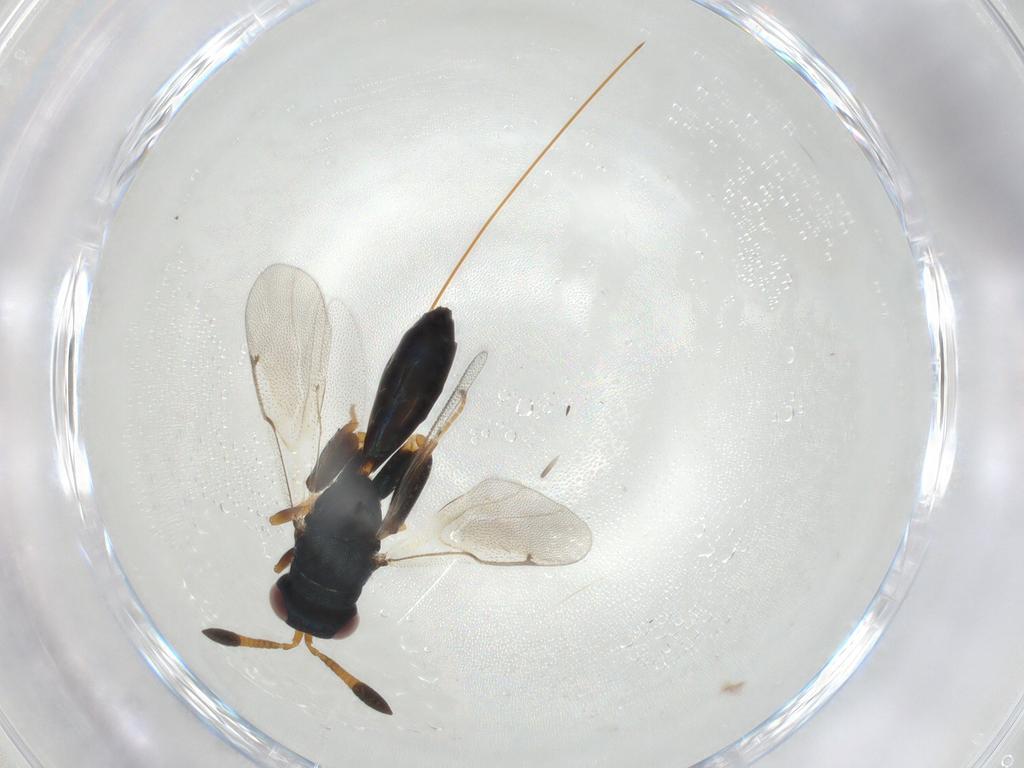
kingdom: Animalia
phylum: Arthropoda
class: Insecta
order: Hymenoptera
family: Torymidae
